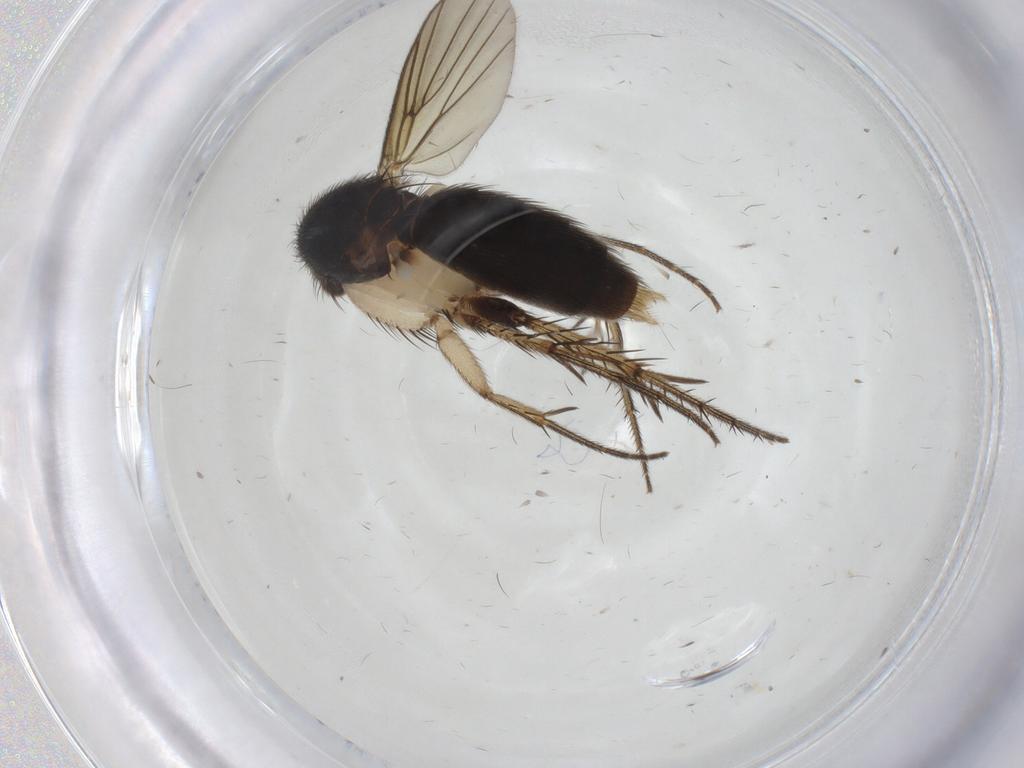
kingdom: Animalia
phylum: Arthropoda
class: Insecta
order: Diptera
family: Mycetophilidae
